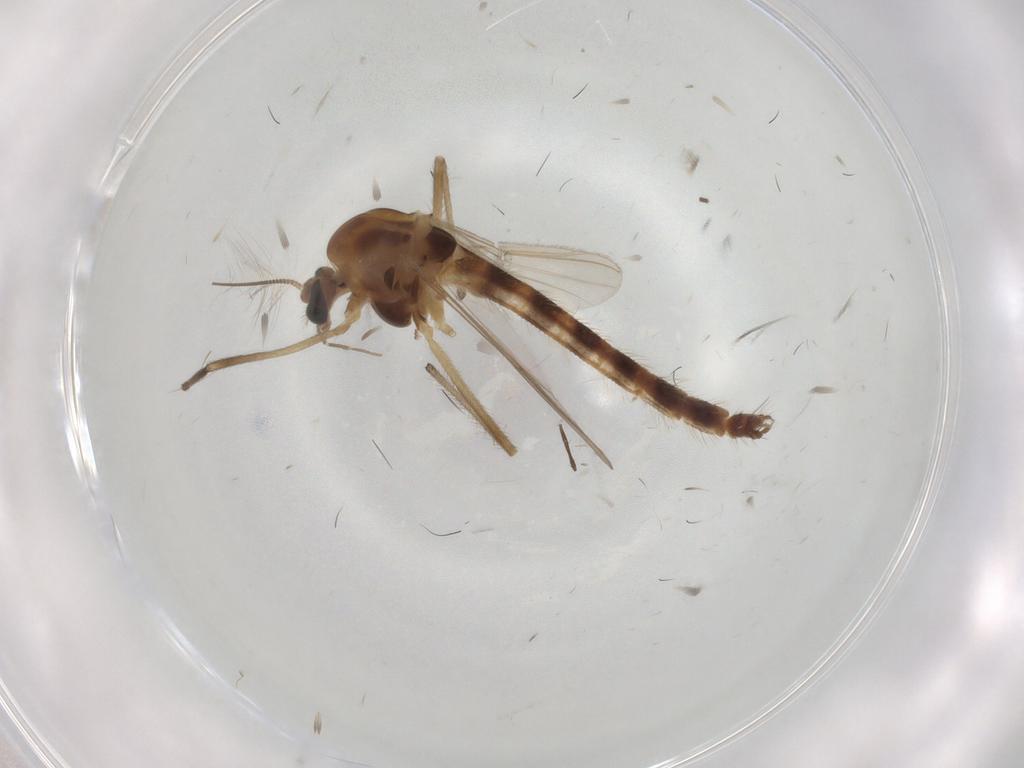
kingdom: Animalia
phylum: Arthropoda
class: Insecta
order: Diptera
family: Chironomidae
